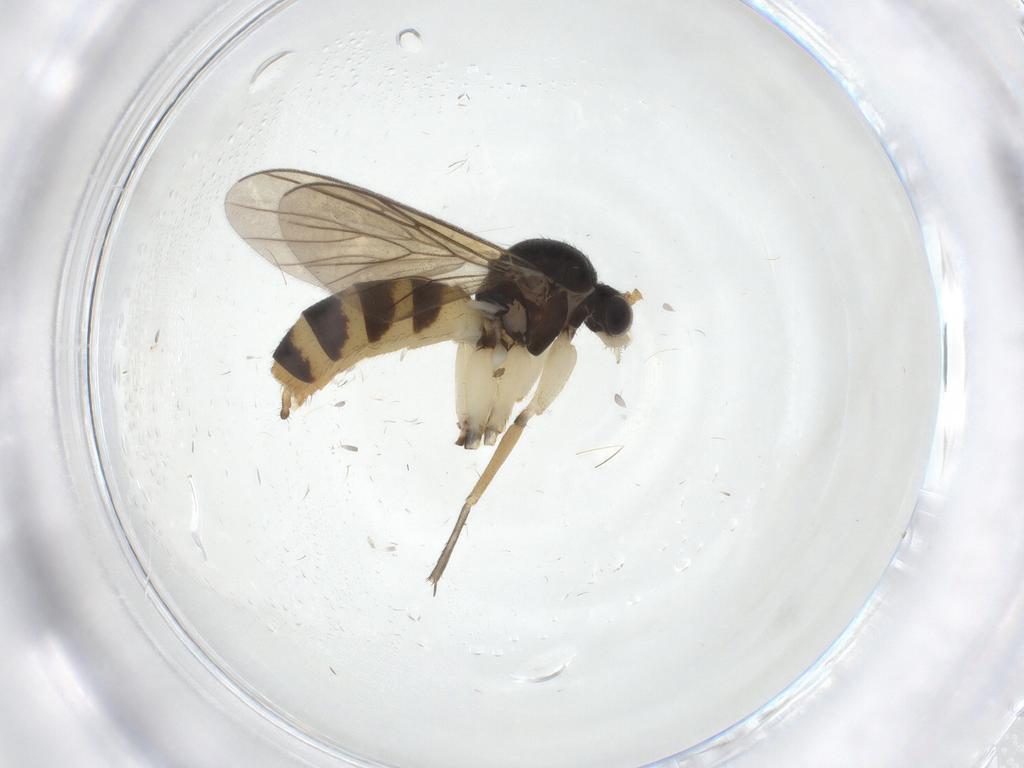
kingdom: Animalia
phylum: Arthropoda
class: Insecta
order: Diptera
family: Mycetophilidae
